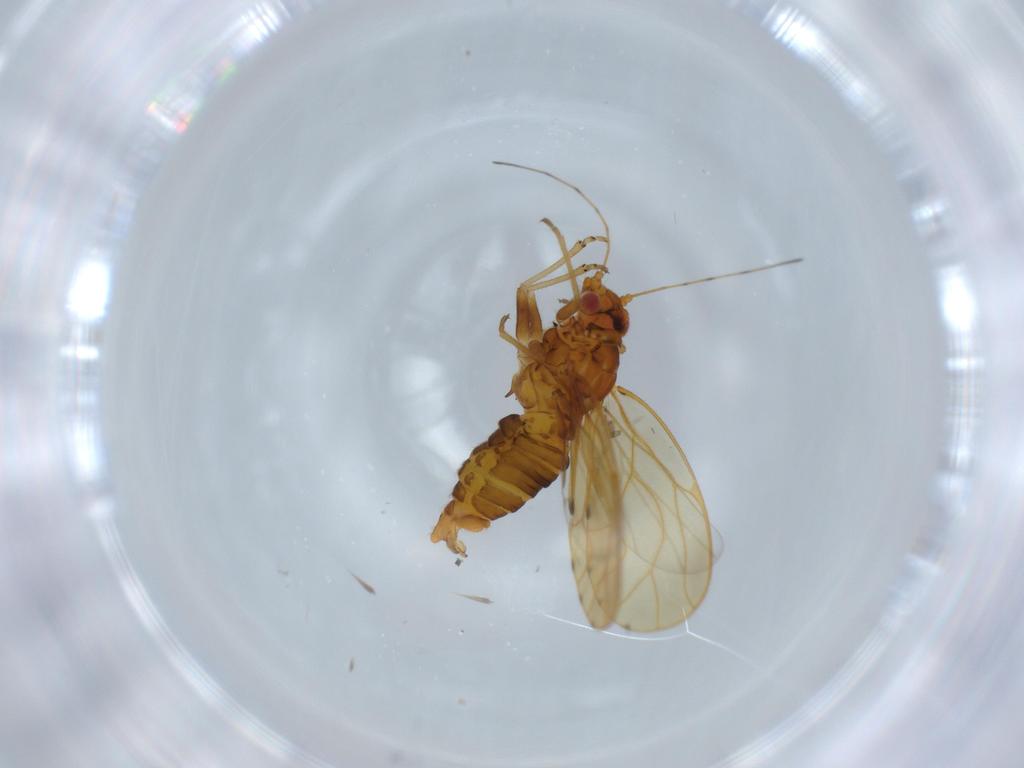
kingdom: Animalia
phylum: Arthropoda
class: Insecta
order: Hemiptera
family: Psylloidea_incertae_sedis
